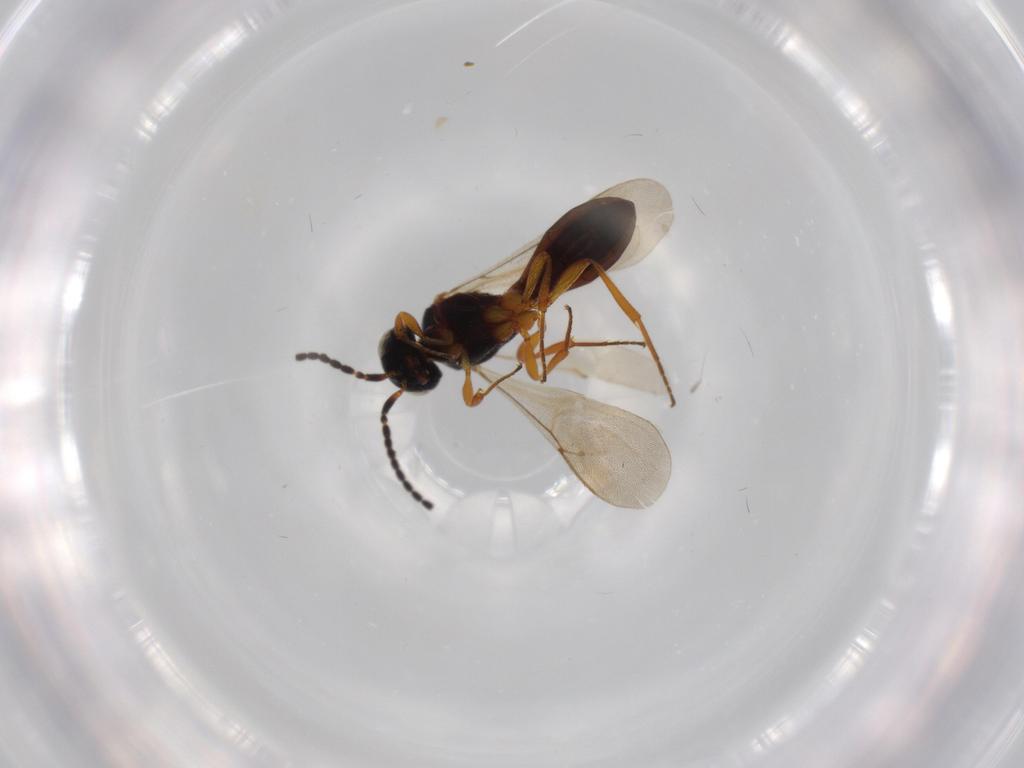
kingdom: Animalia
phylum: Arthropoda
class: Insecta
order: Hymenoptera
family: Scelionidae
